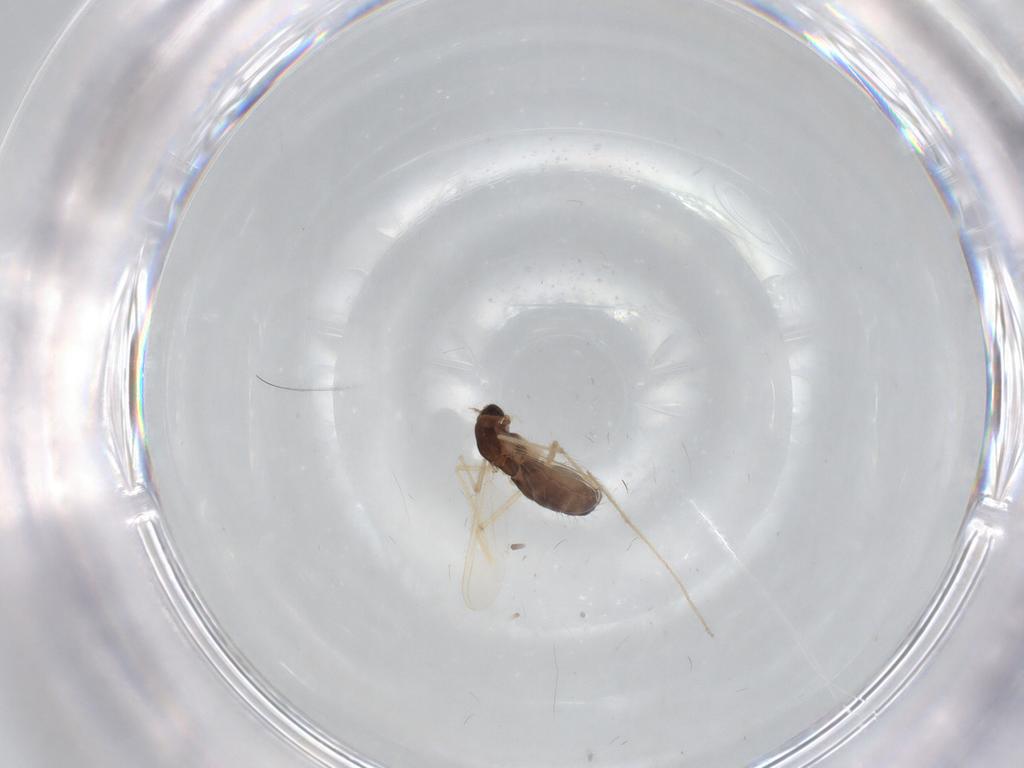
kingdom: Animalia
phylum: Arthropoda
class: Insecta
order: Diptera
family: Chironomidae
